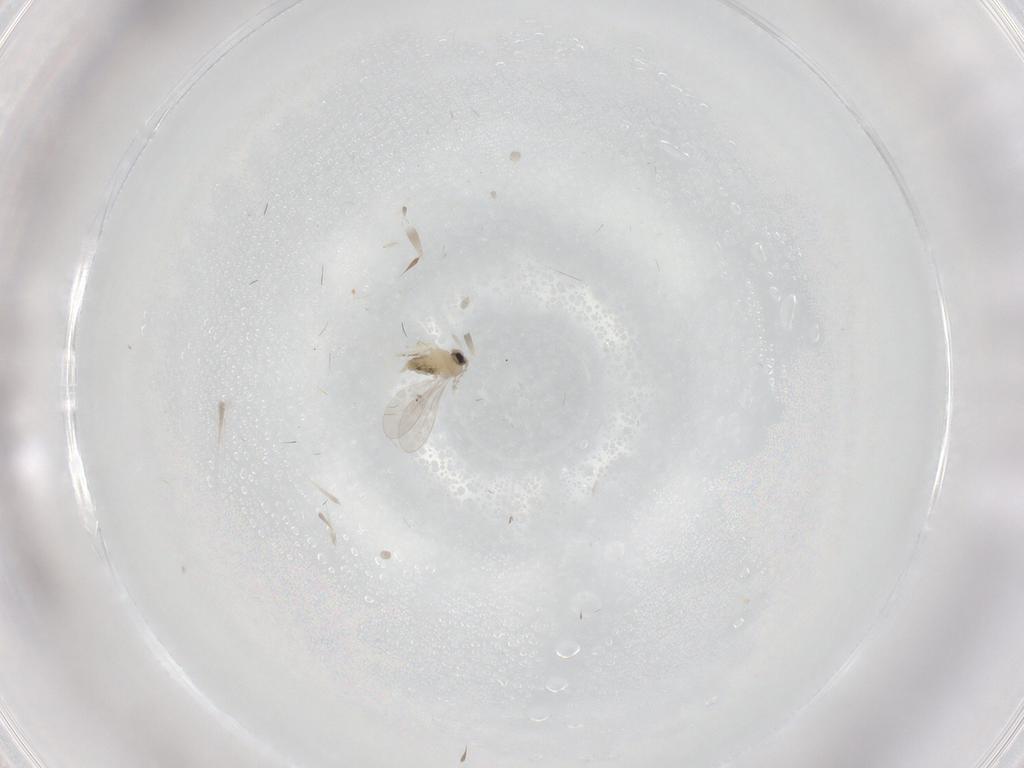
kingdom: Animalia
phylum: Arthropoda
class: Insecta
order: Diptera
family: Cecidomyiidae
